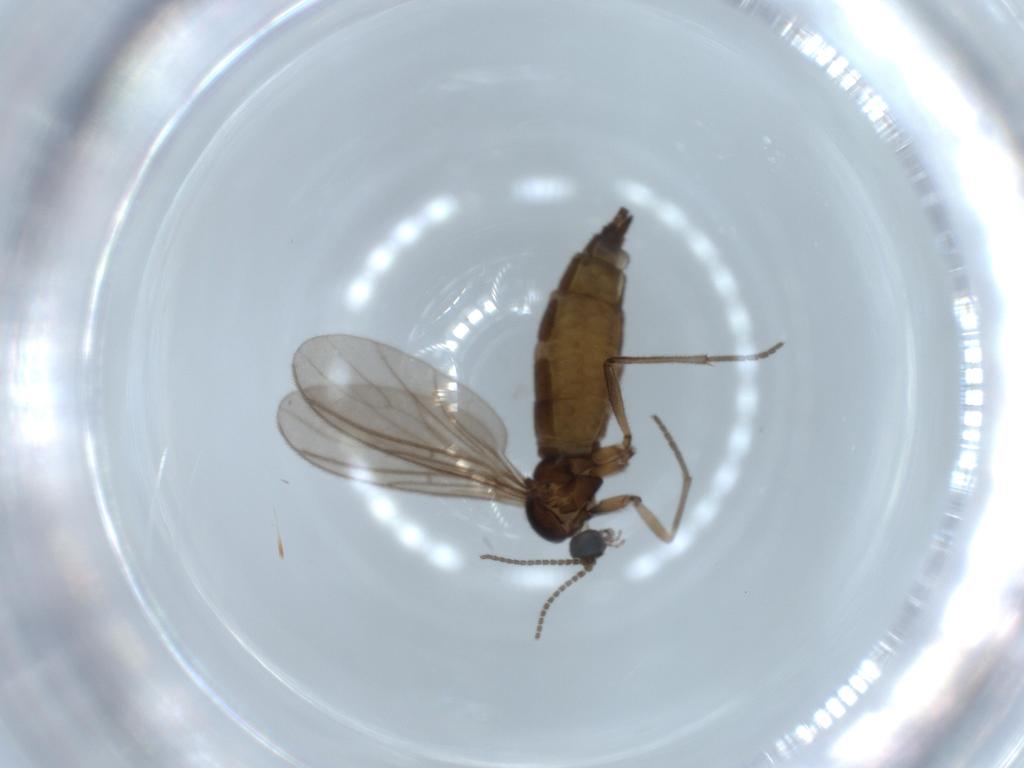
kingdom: Animalia
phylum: Arthropoda
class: Insecta
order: Diptera
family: Sciaridae
